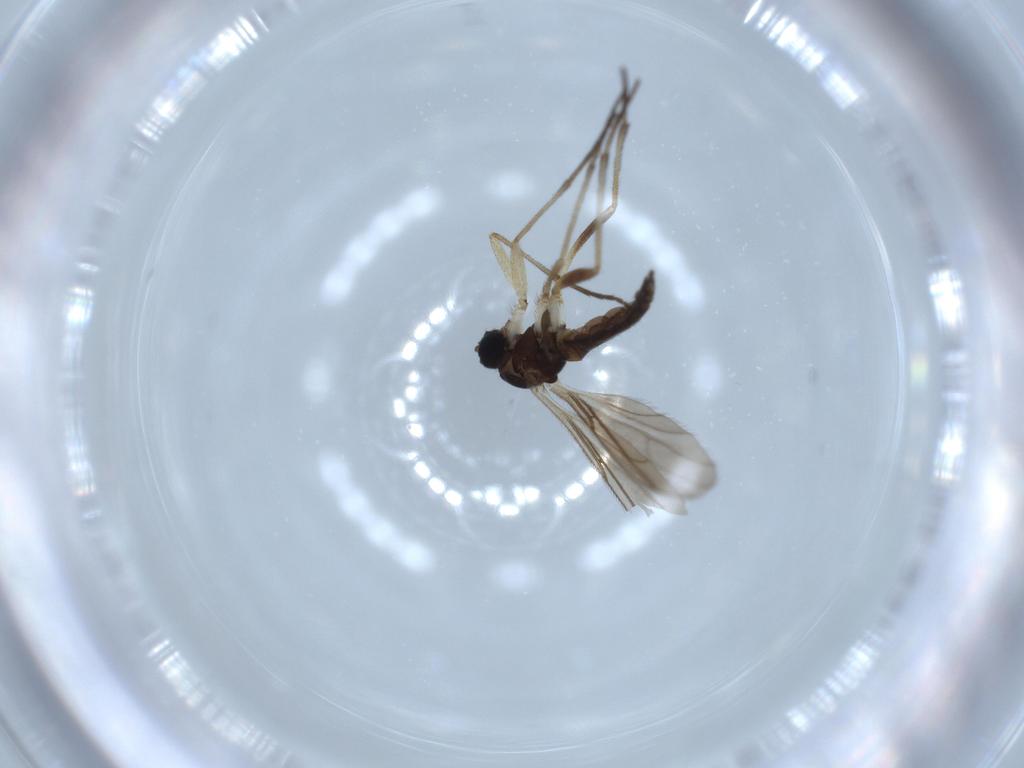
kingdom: Animalia
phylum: Arthropoda
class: Insecta
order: Diptera
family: Sciaridae
